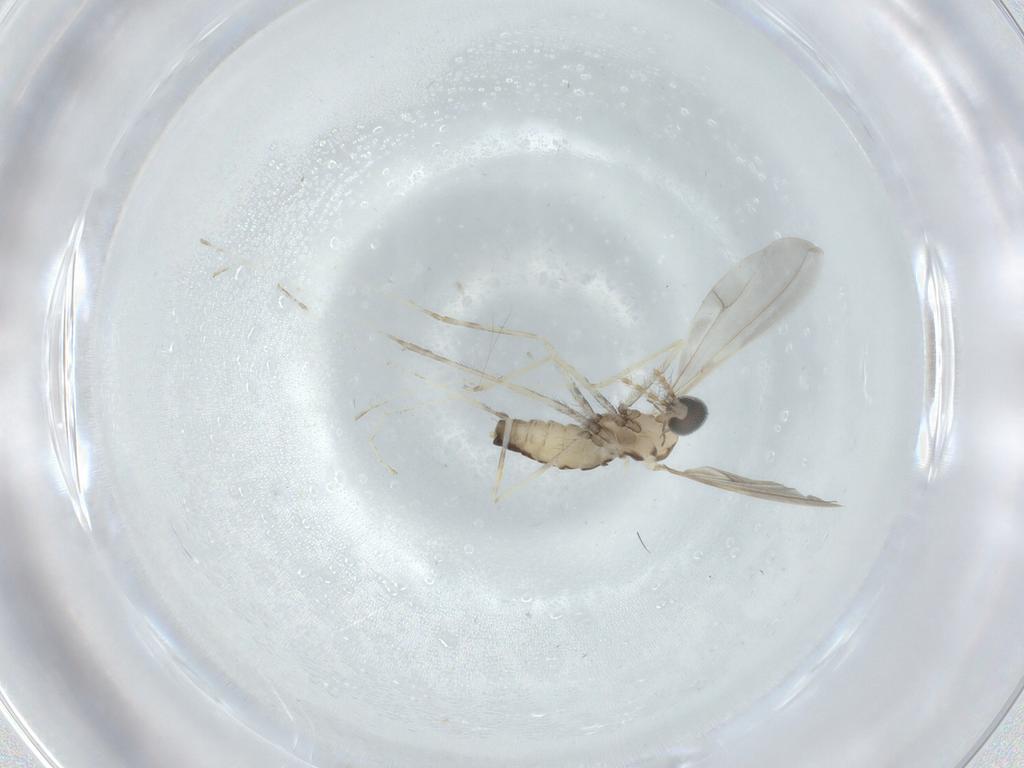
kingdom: Animalia
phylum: Arthropoda
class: Insecta
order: Diptera
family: Cecidomyiidae
